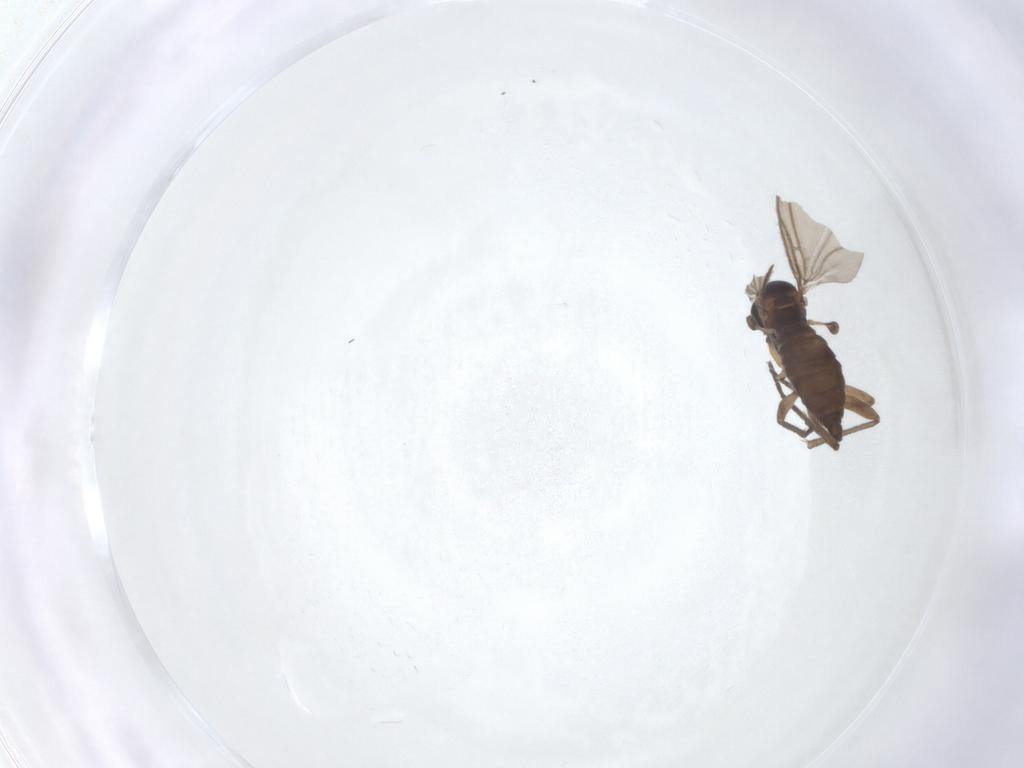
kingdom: Animalia
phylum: Arthropoda
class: Insecta
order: Diptera
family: Sciaridae
